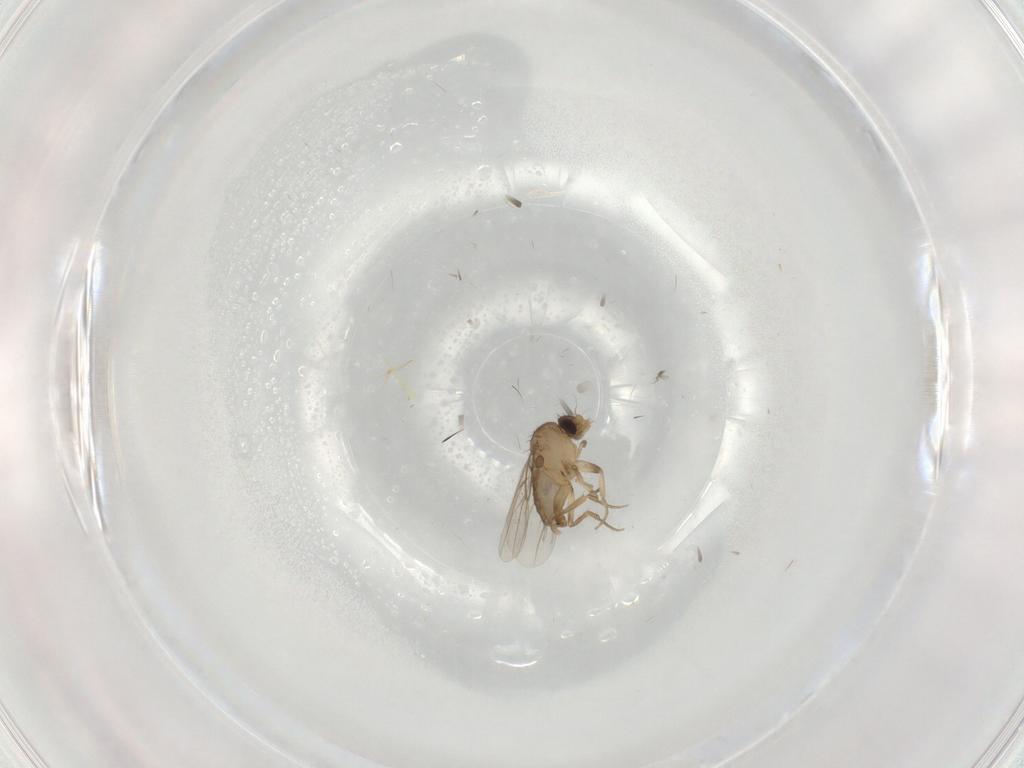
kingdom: Animalia
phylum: Arthropoda
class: Insecta
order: Diptera
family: Phoridae
